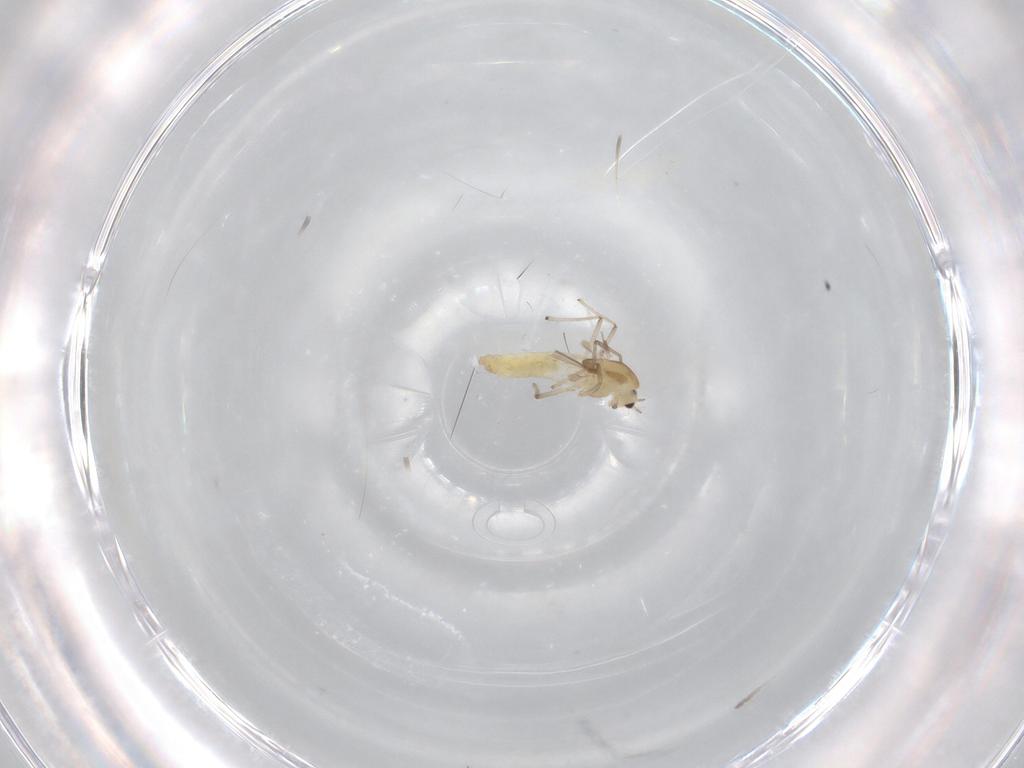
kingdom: Animalia
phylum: Arthropoda
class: Insecta
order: Diptera
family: Chironomidae
